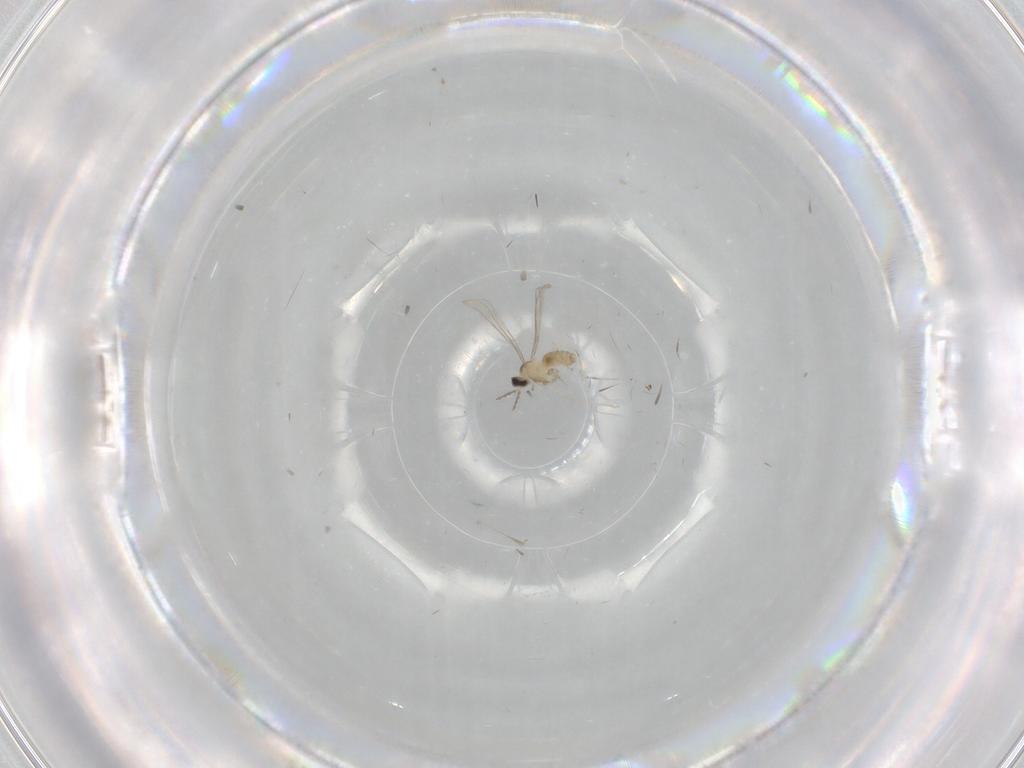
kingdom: Animalia
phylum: Arthropoda
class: Insecta
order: Diptera
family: Cecidomyiidae
